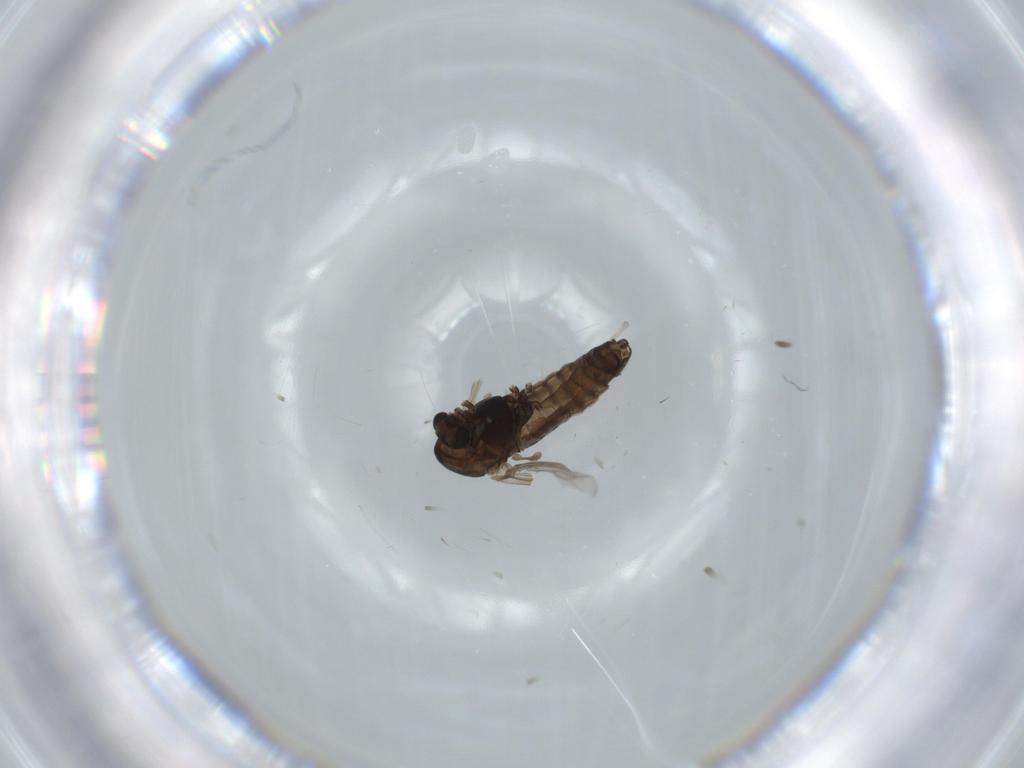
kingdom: Animalia
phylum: Arthropoda
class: Insecta
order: Diptera
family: Chironomidae
